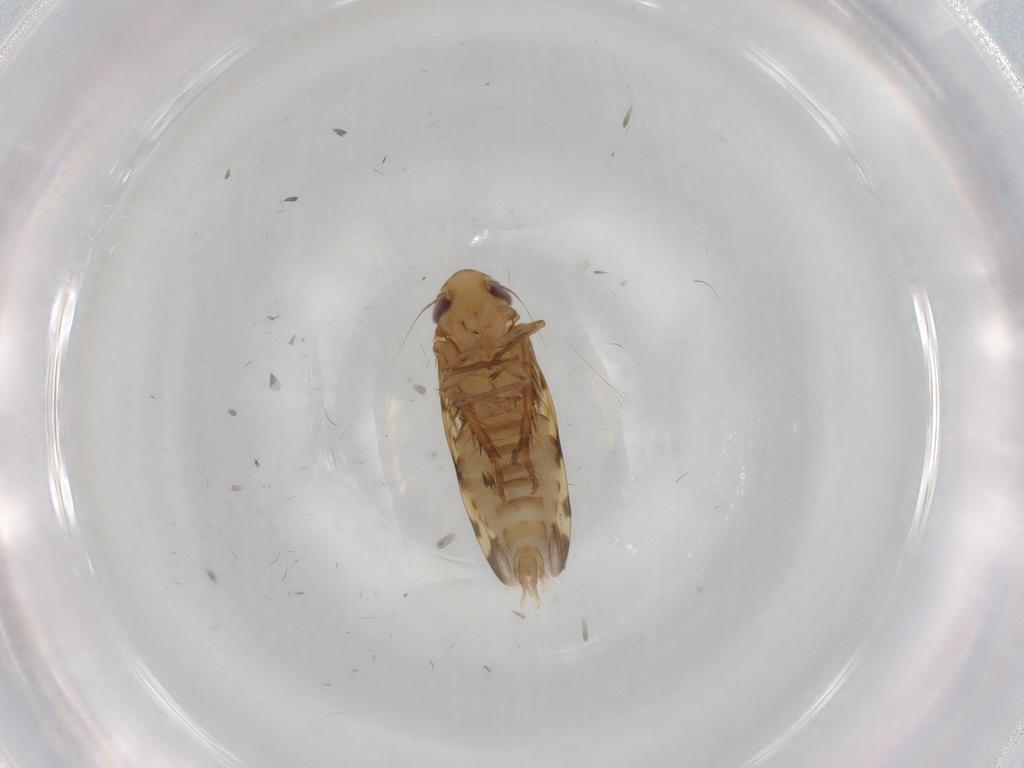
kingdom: Animalia
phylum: Arthropoda
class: Insecta
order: Hemiptera
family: Cicadellidae
